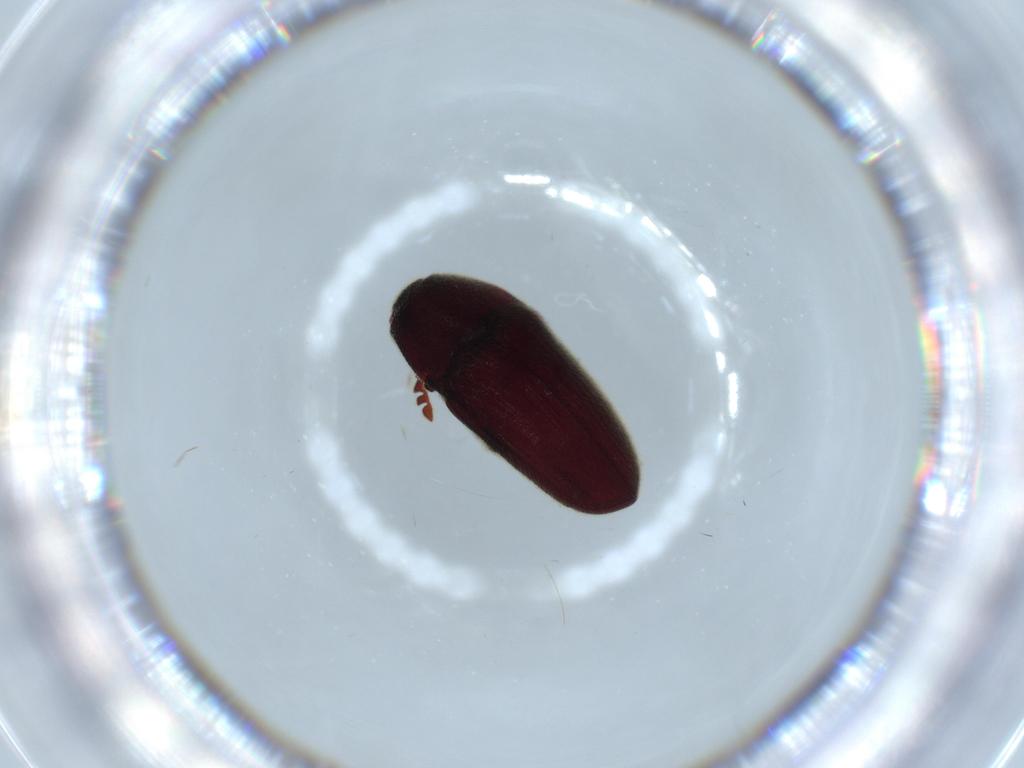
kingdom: Animalia
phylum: Arthropoda
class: Insecta
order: Coleoptera
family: Throscidae
